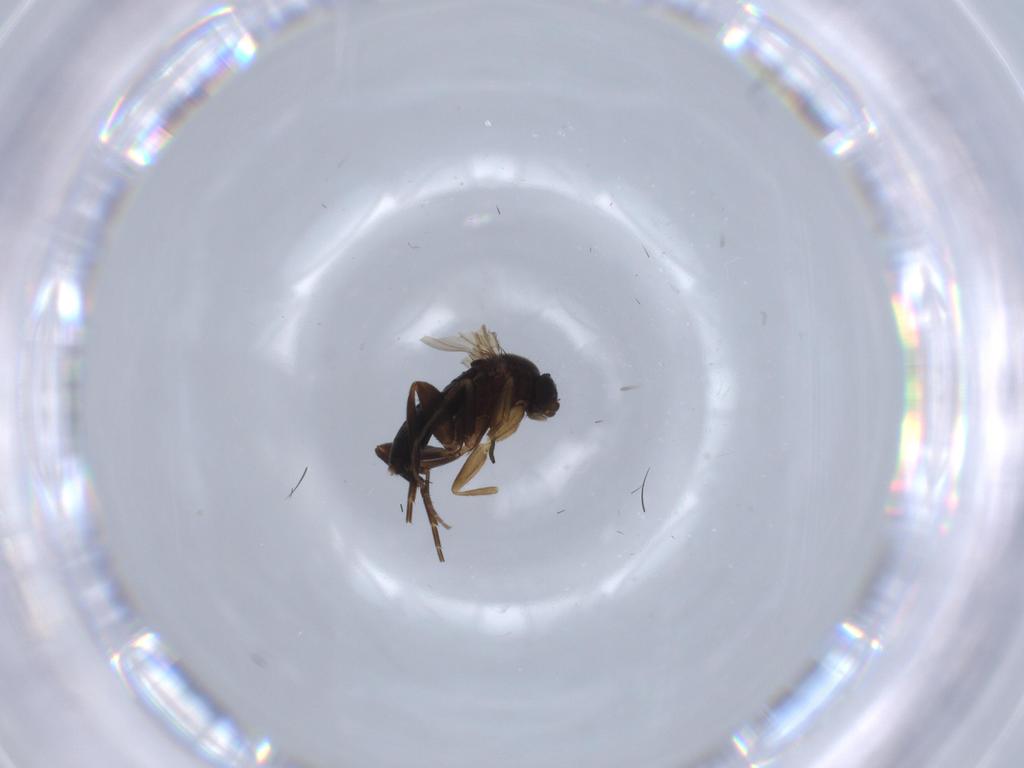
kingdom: Animalia
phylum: Arthropoda
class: Insecta
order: Diptera
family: Phoridae
